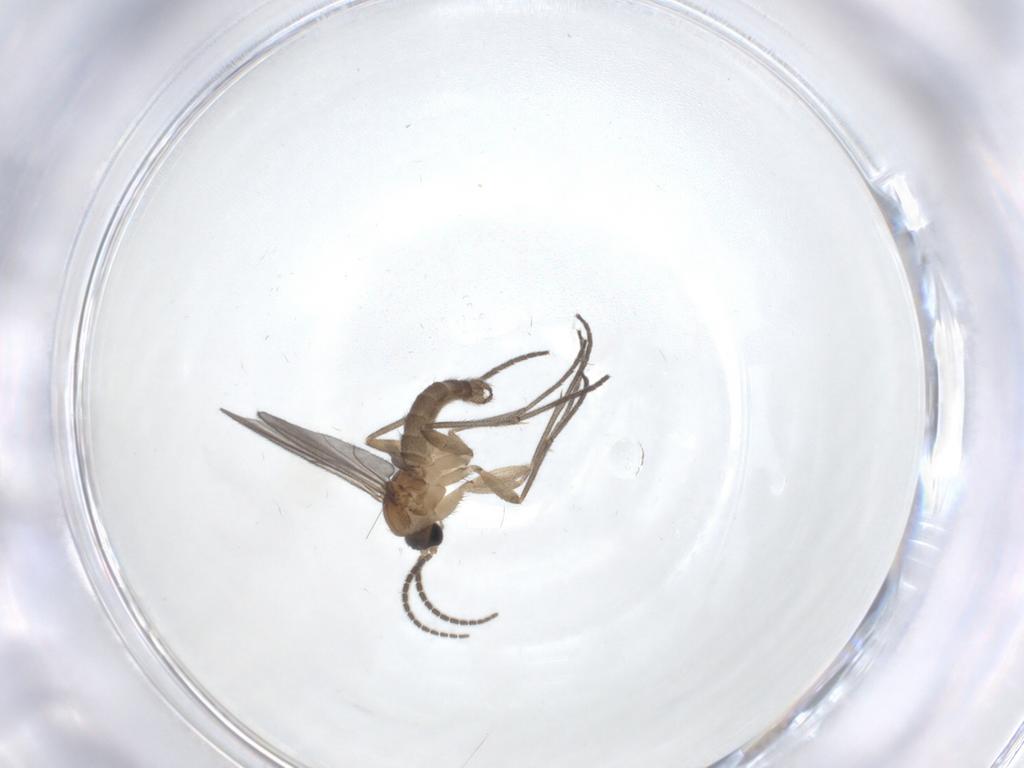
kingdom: Animalia
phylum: Arthropoda
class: Insecta
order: Diptera
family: Sciaridae
